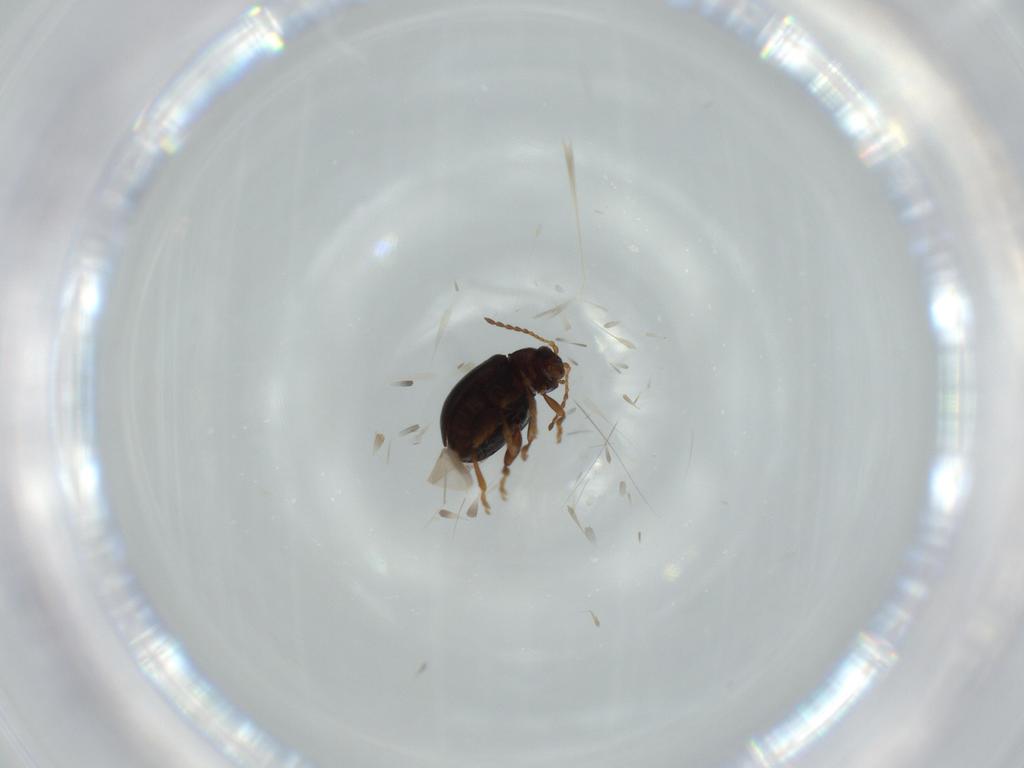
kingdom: Animalia
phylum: Arthropoda
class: Insecta
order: Coleoptera
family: Chrysomelidae
